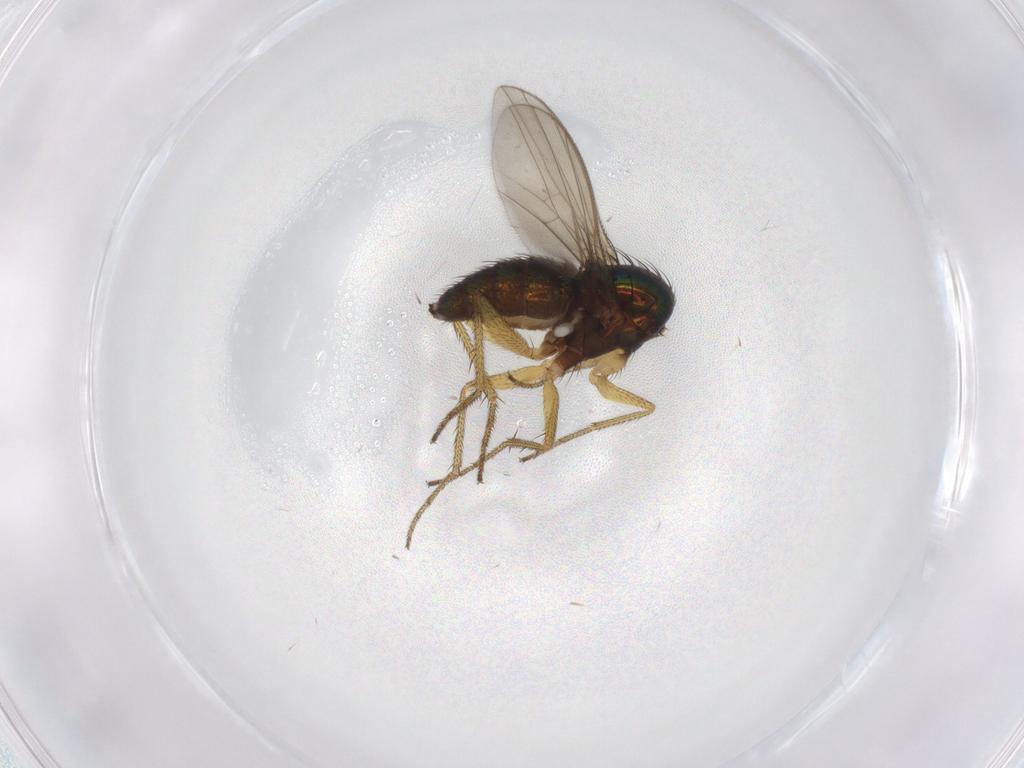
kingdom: Animalia
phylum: Arthropoda
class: Insecta
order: Diptera
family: Dolichopodidae
